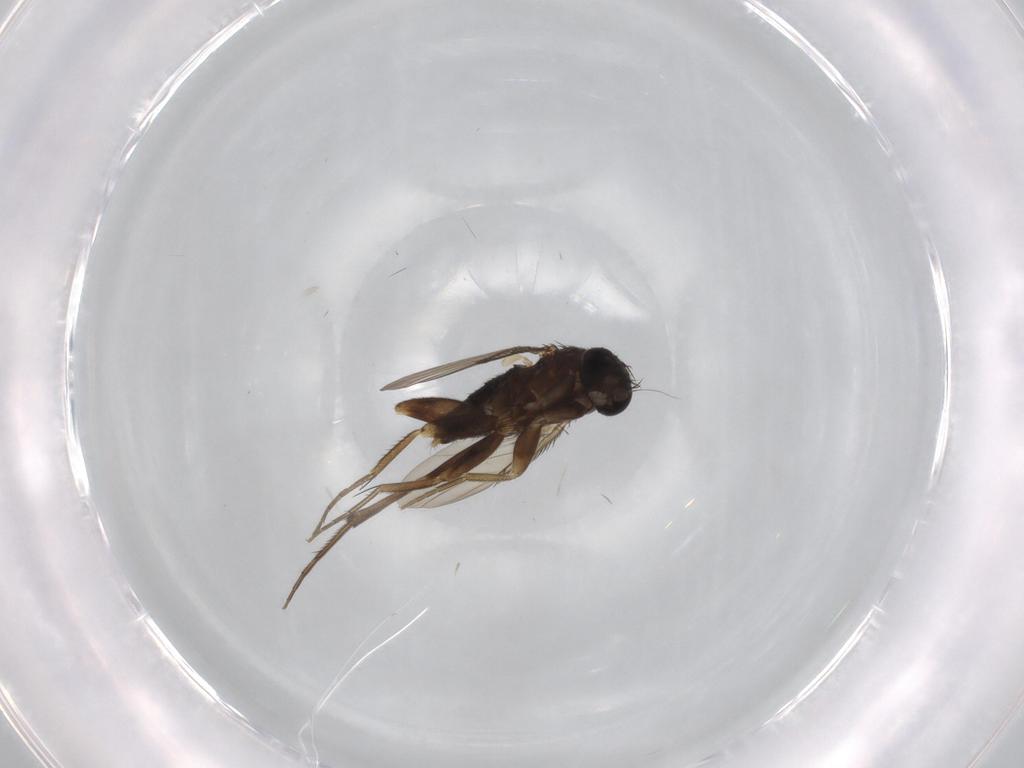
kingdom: Animalia
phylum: Arthropoda
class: Insecta
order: Diptera
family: Phoridae
